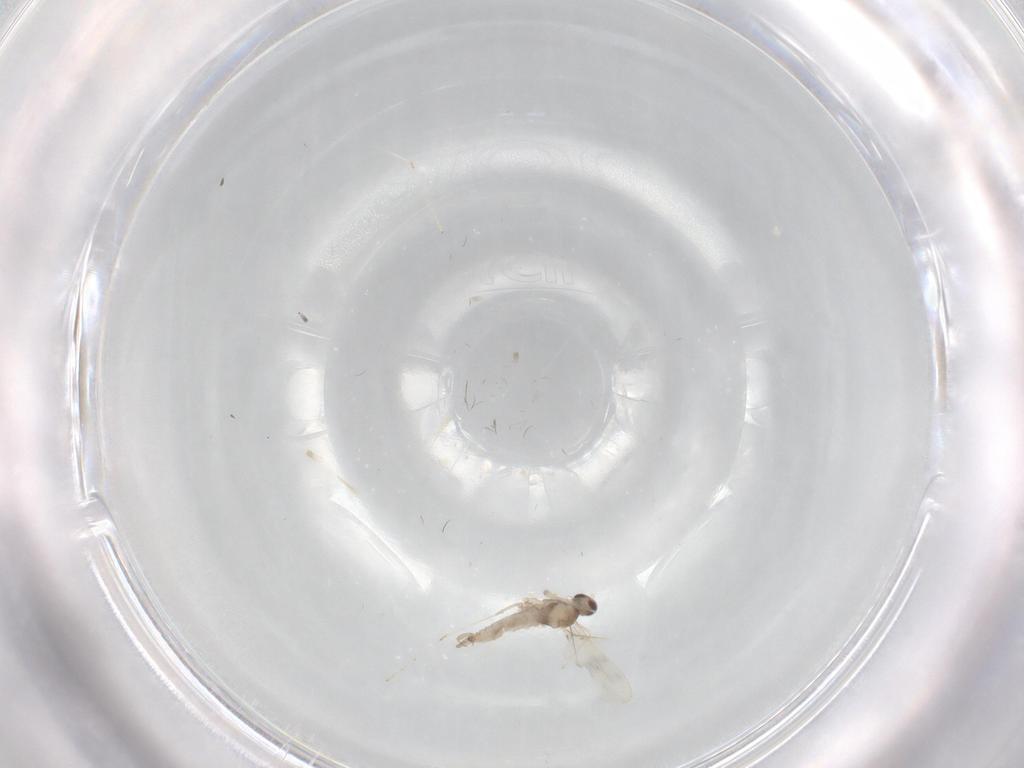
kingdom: Animalia
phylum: Arthropoda
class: Insecta
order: Diptera
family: Cecidomyiidae
